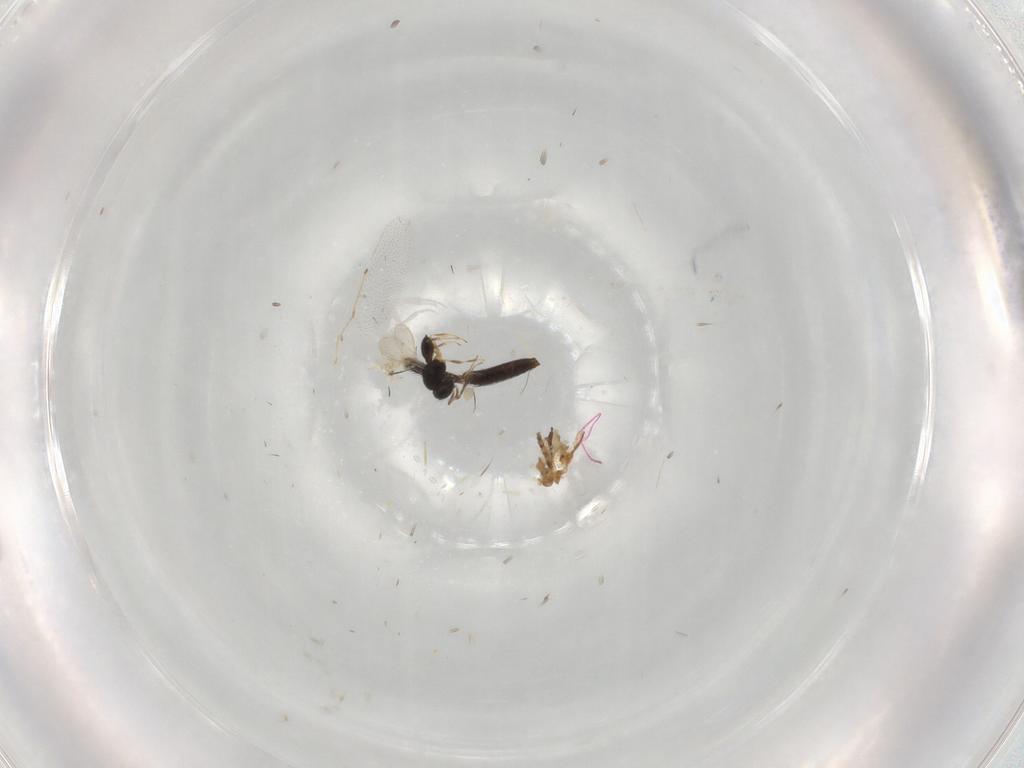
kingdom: Animalia
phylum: Arthropoda
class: Insecta
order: Hymenoptera
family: Scelionidae
